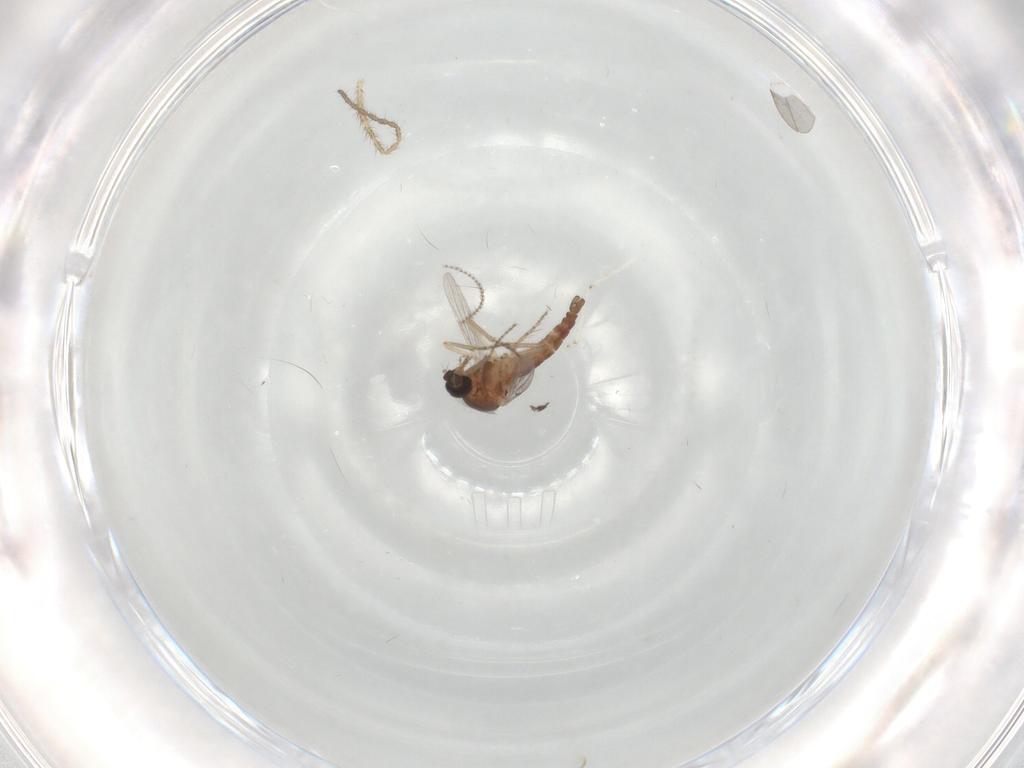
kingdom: Animalia
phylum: Arthropoda
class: Insecta
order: Diptera
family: Limoniidae
